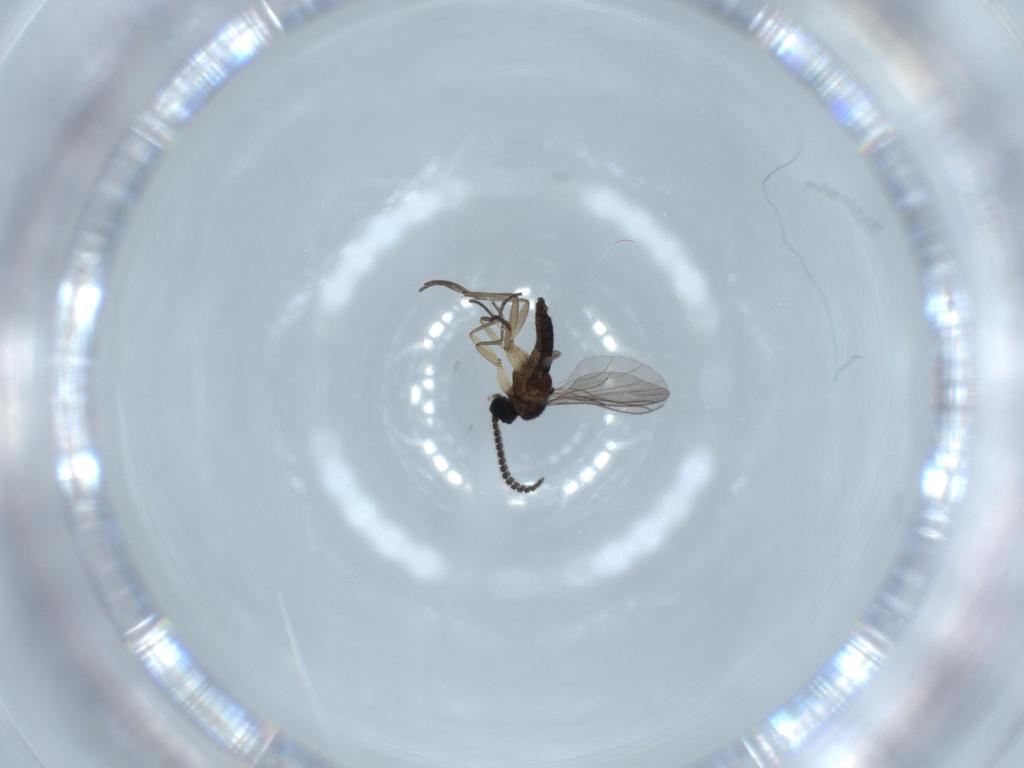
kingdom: Animalia
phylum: Arthropoda
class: Insecta
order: Diptera
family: Sciaridae
